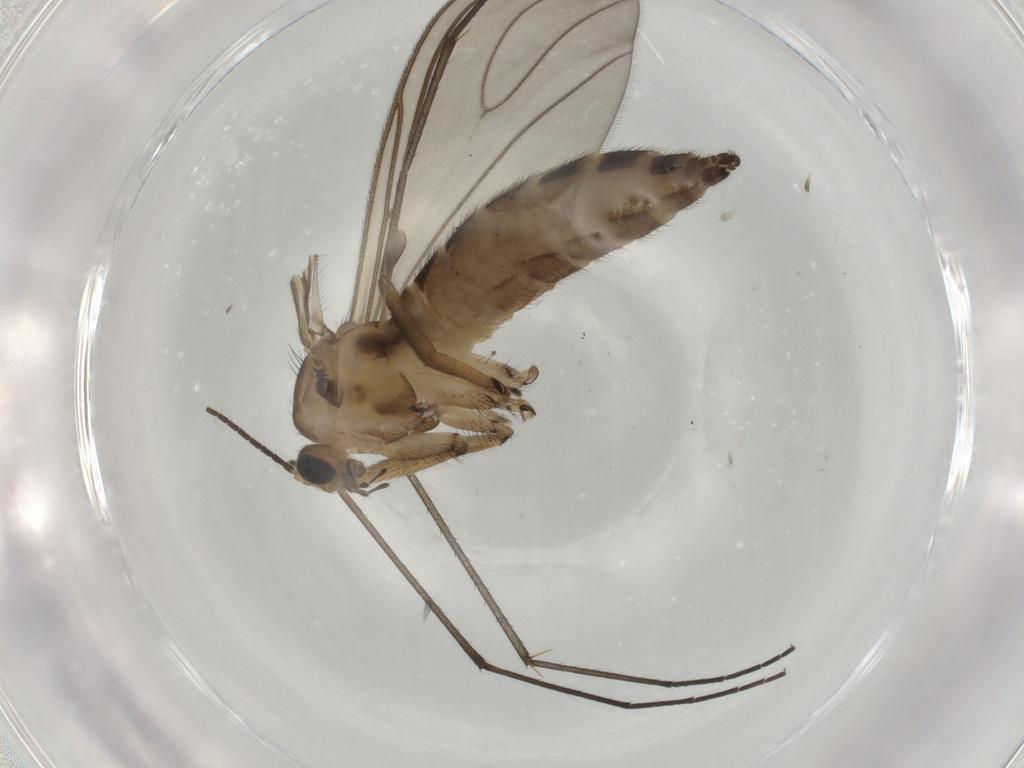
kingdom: Animalia
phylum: Arthropoda
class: Insecta
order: Diptera
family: Sciaridae
